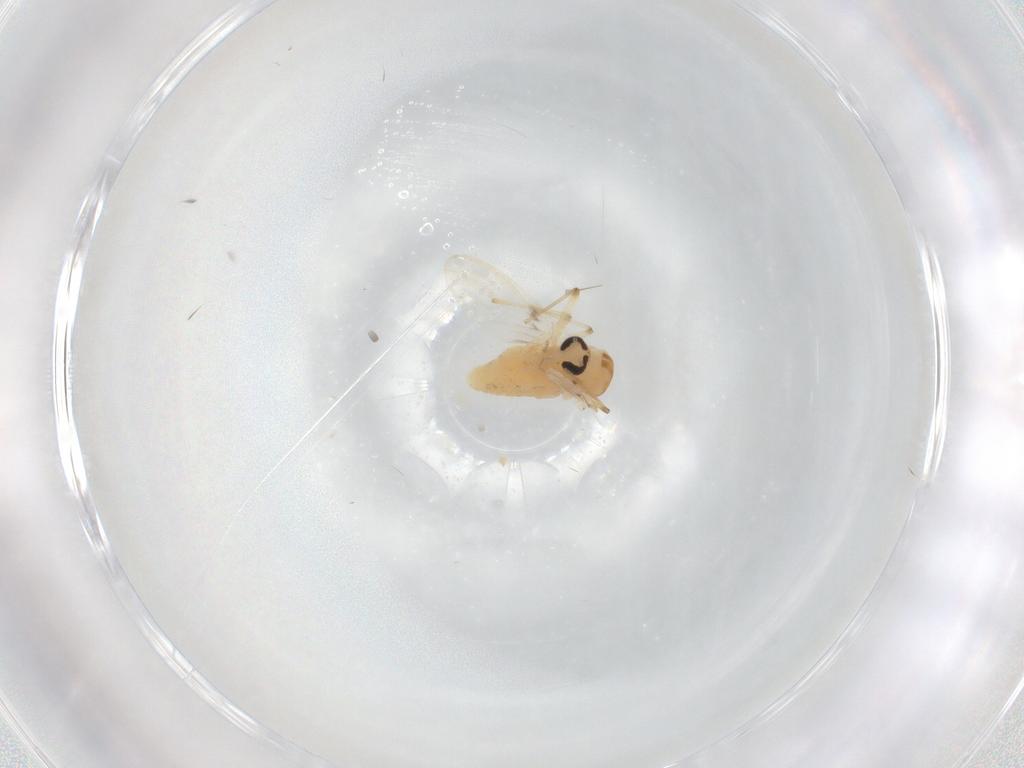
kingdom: Animalia
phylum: Arthropoda
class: Insecta
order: Diptera
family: Chironomidae
